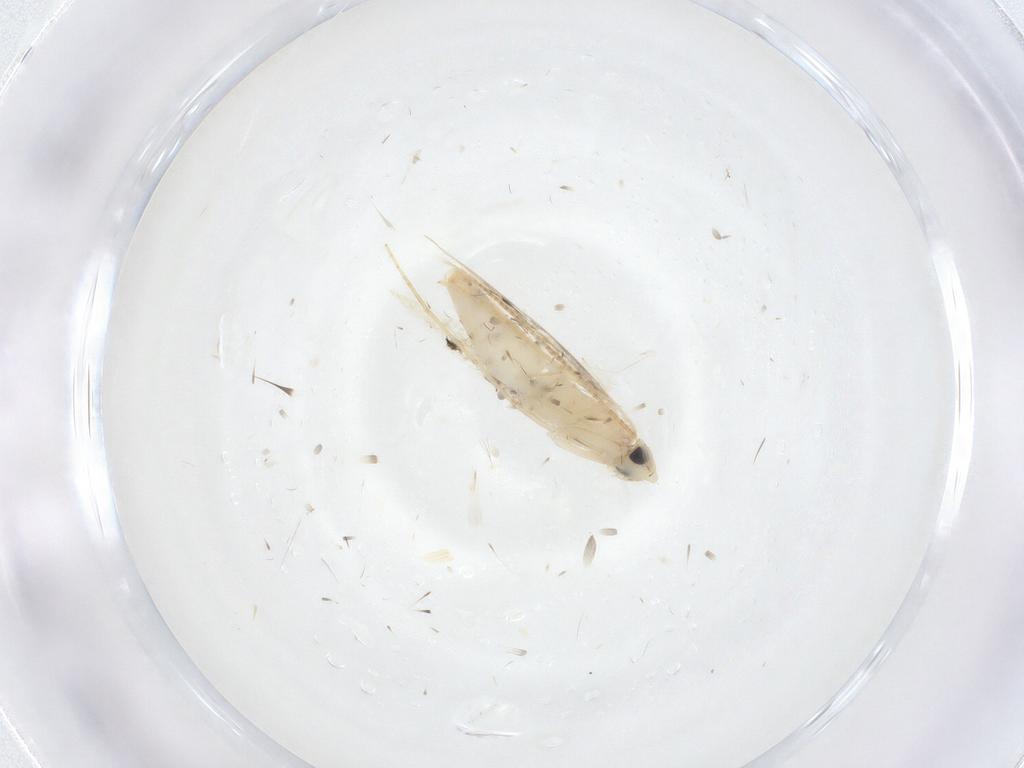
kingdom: Animalia
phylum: Arthropoda
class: Insecta
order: Lepidoptera
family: Tineidae
